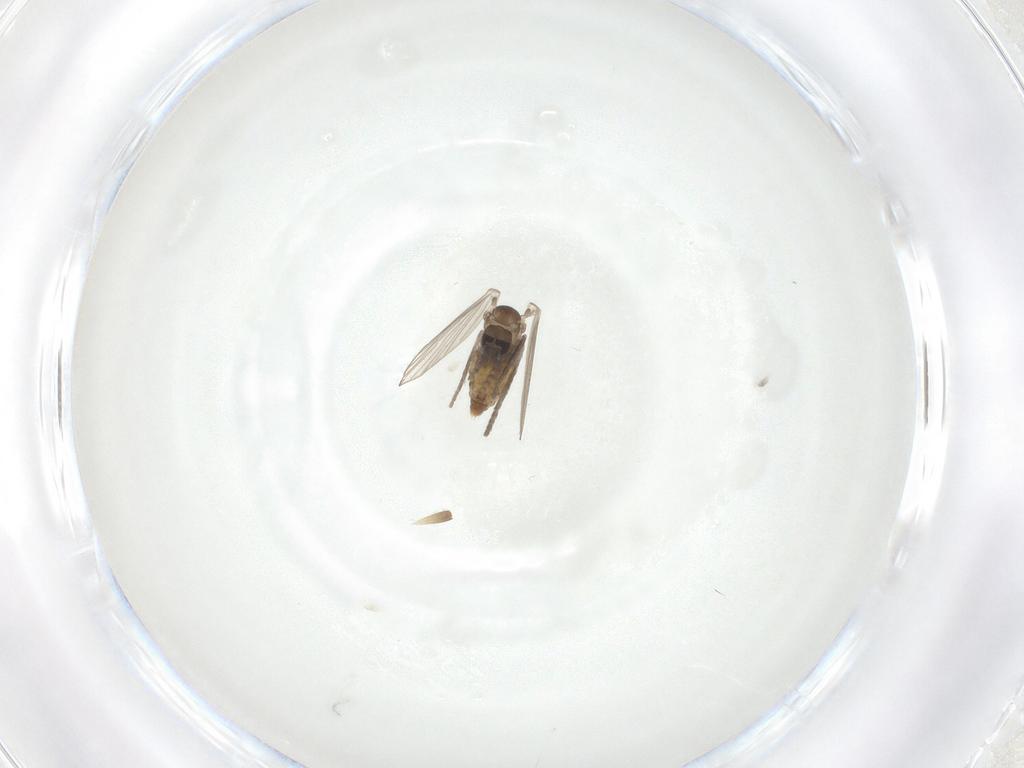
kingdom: Animalia
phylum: Arthropoda
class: Insecta
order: Diptera
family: Psychodidae
